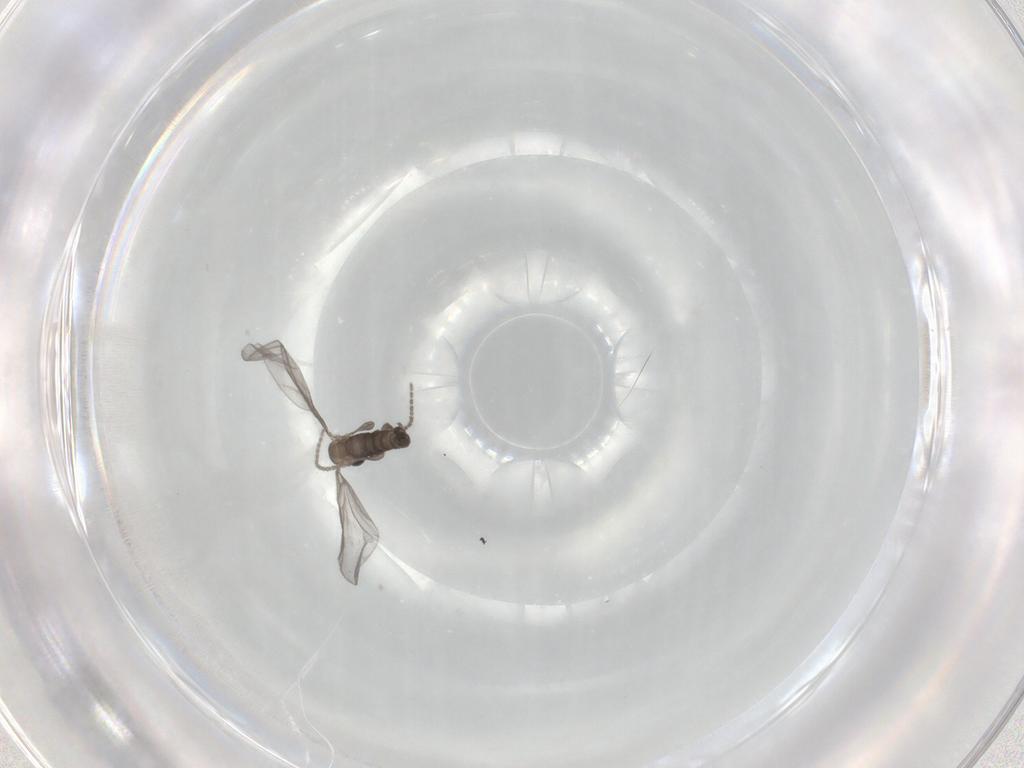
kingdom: Animalia
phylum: Arthropoda
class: Insecta
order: Diptera
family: Sciaridae
